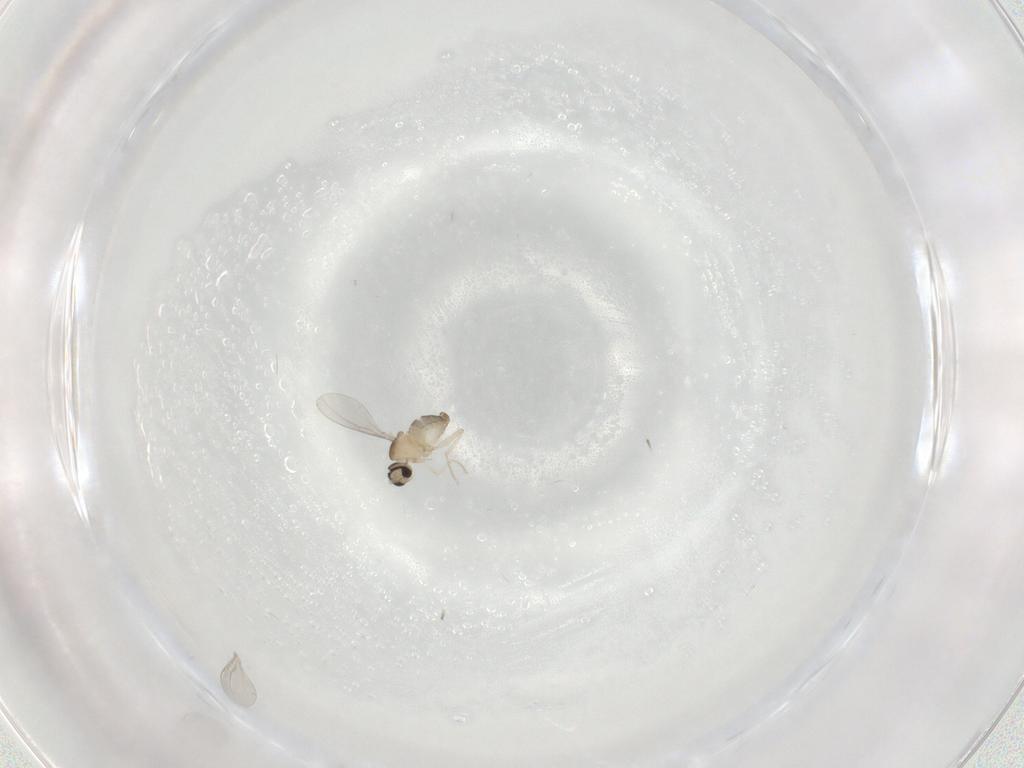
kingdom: Animalia
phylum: Arthropoda
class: Insecta
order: Diptera
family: Cecidomyiidae
